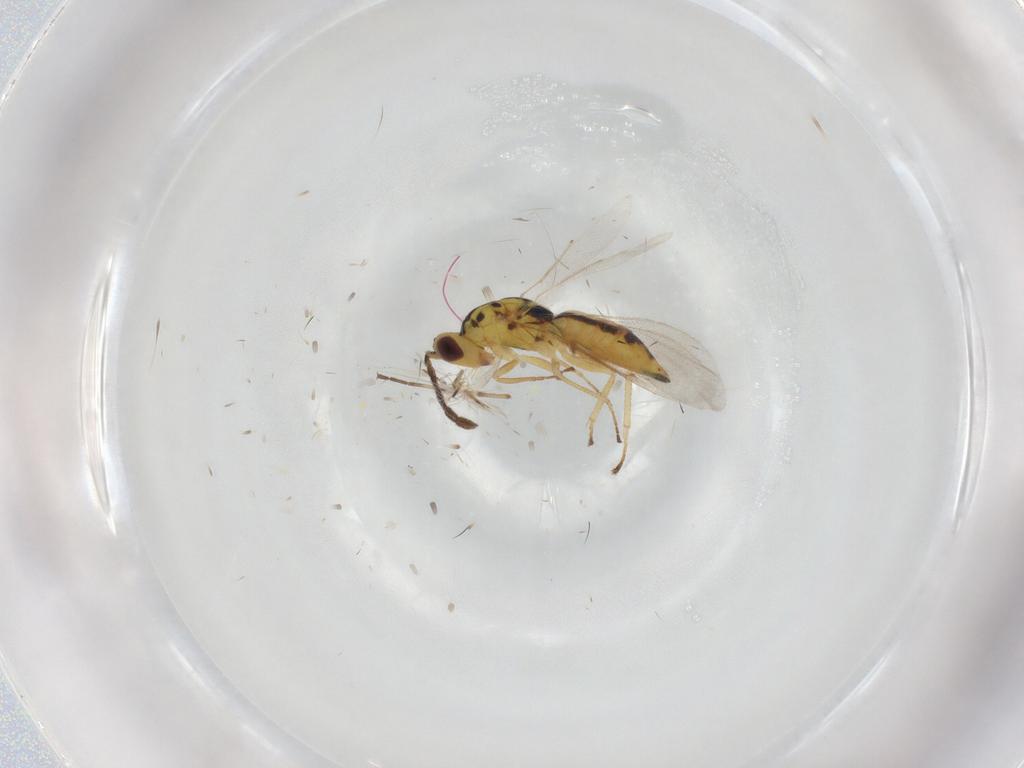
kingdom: Animalia
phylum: Arthropoda
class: Insecta
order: Hymenoptera
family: Eulophidae
